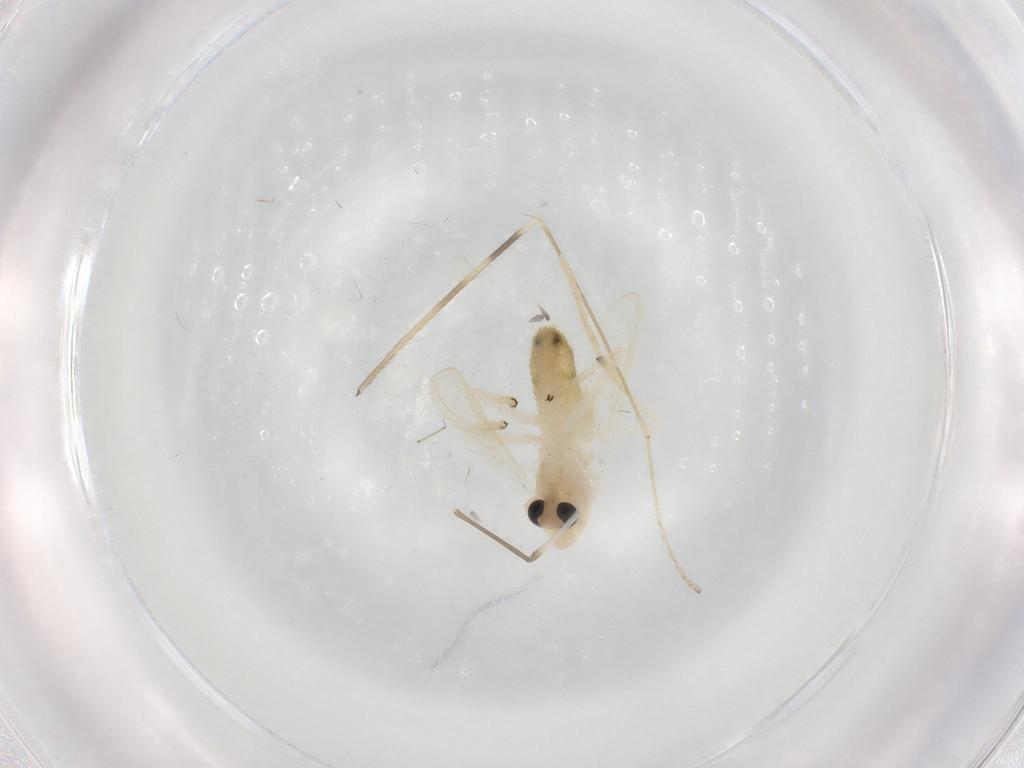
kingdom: Animalia
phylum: Arthropoda
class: Insecta
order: Diptera
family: Chironomidae
